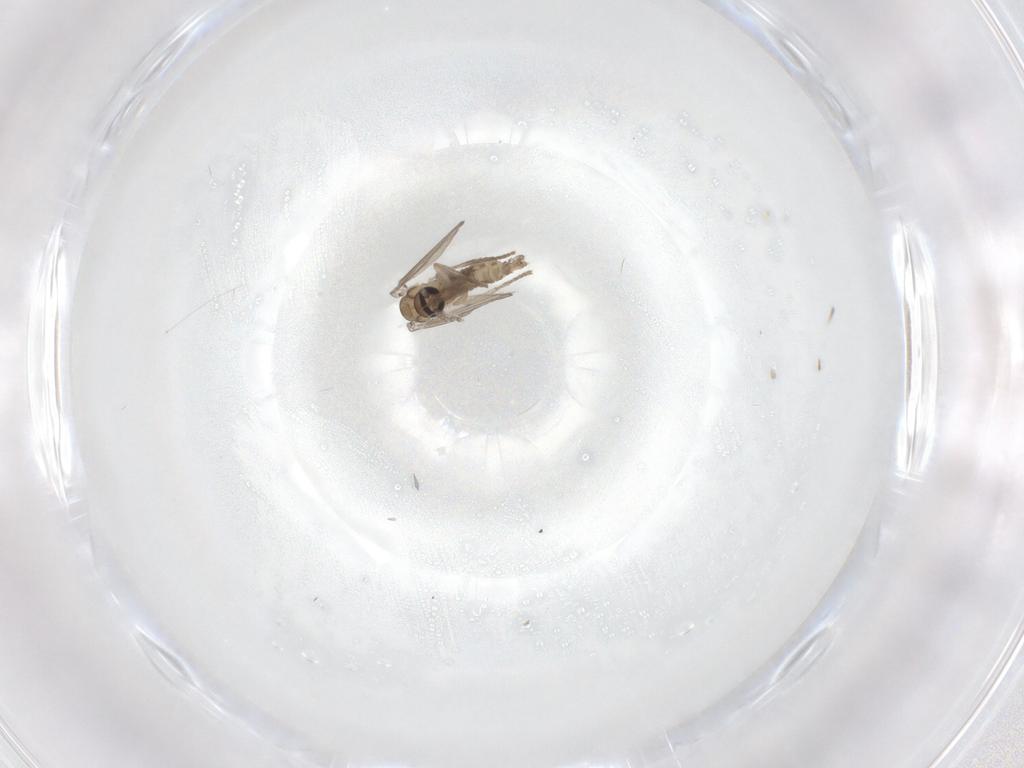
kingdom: Animalia
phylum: Arthropoda
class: Insecta
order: Diptera
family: Psychodidae
